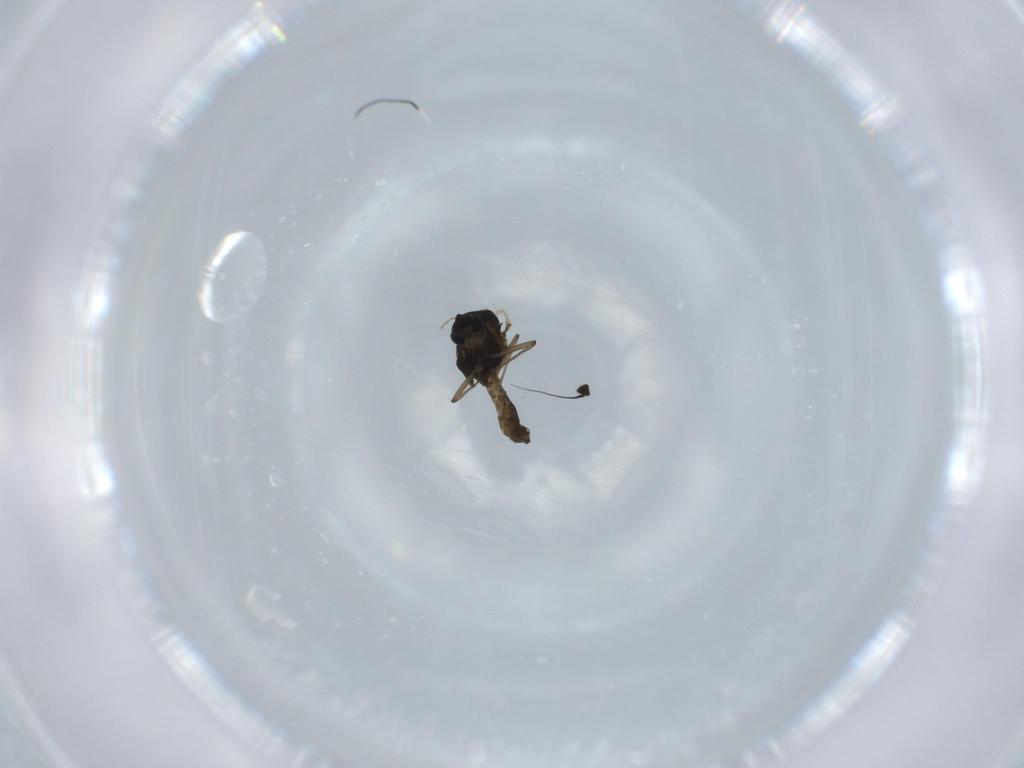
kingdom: Animalia
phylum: Arthropoda
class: Insecta
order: Diptera
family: Chironomidae
